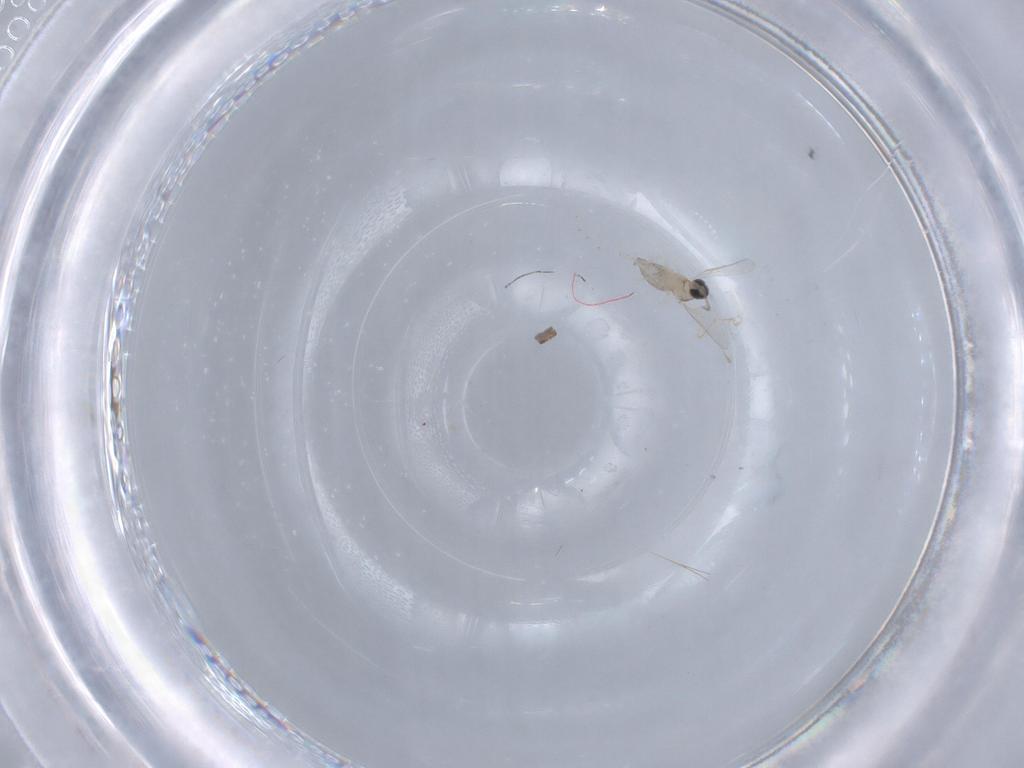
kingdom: Animalia
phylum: Arthropoda
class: Insecta
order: Diptera
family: Cecidomyiidae
